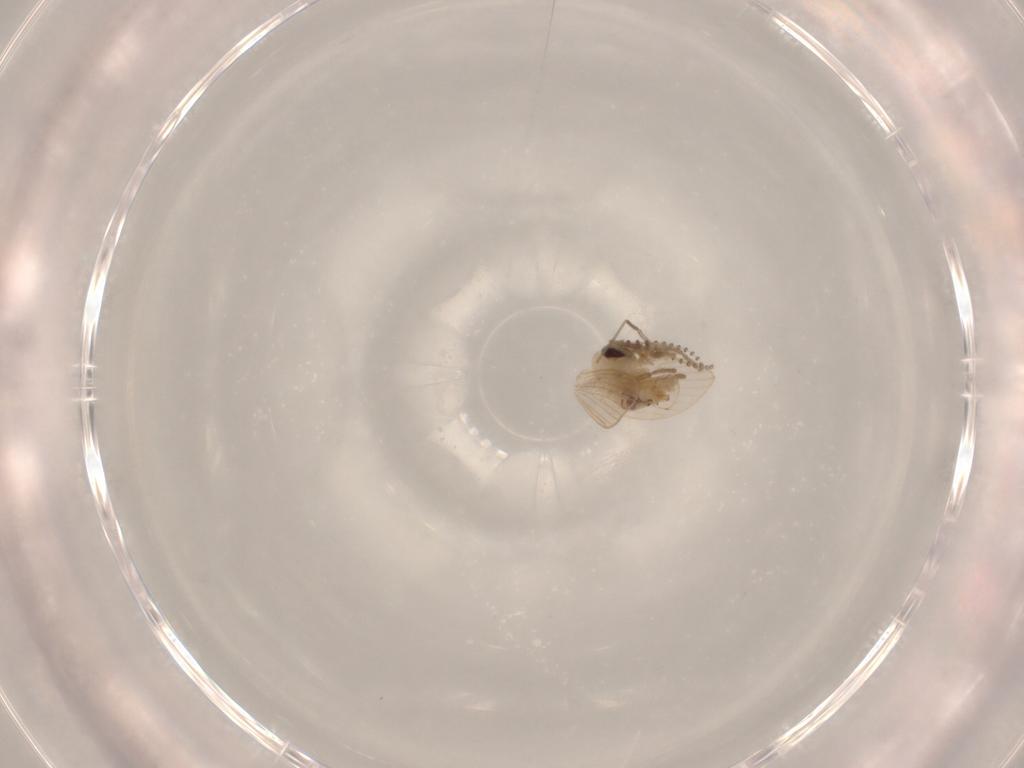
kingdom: Animalia
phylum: Arthropoda
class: Insecta
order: Diptera
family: Psychodidae
